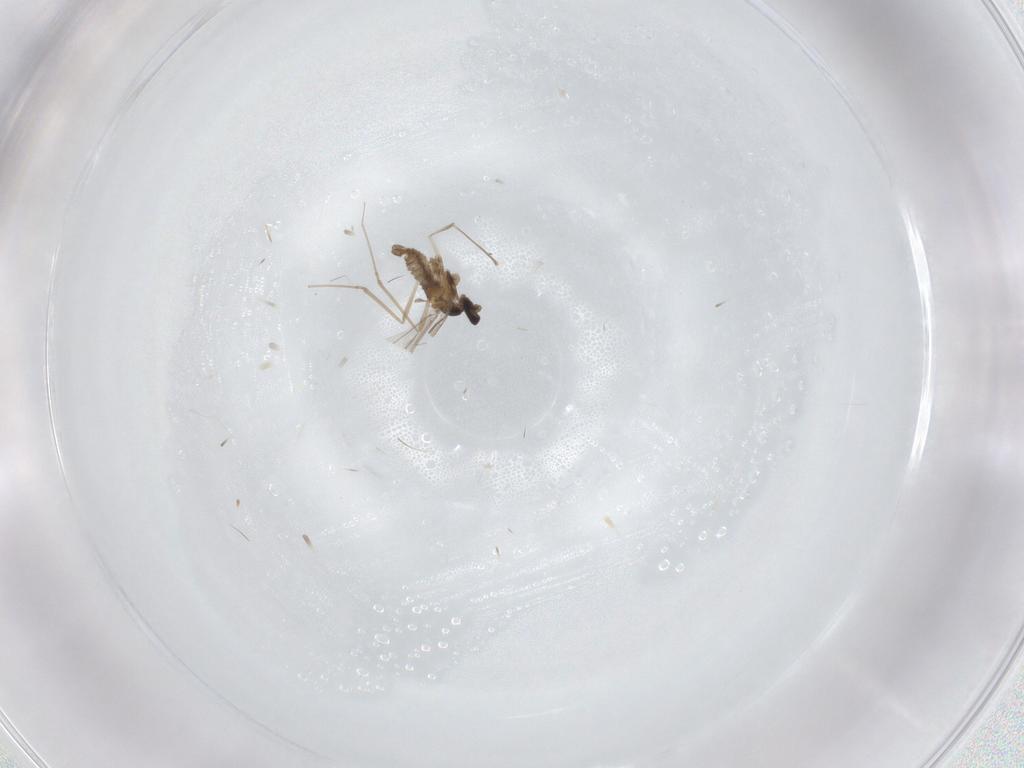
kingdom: Animalia
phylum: Arthropoda
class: Insecta
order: Diptera
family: Cecidomyiidae
